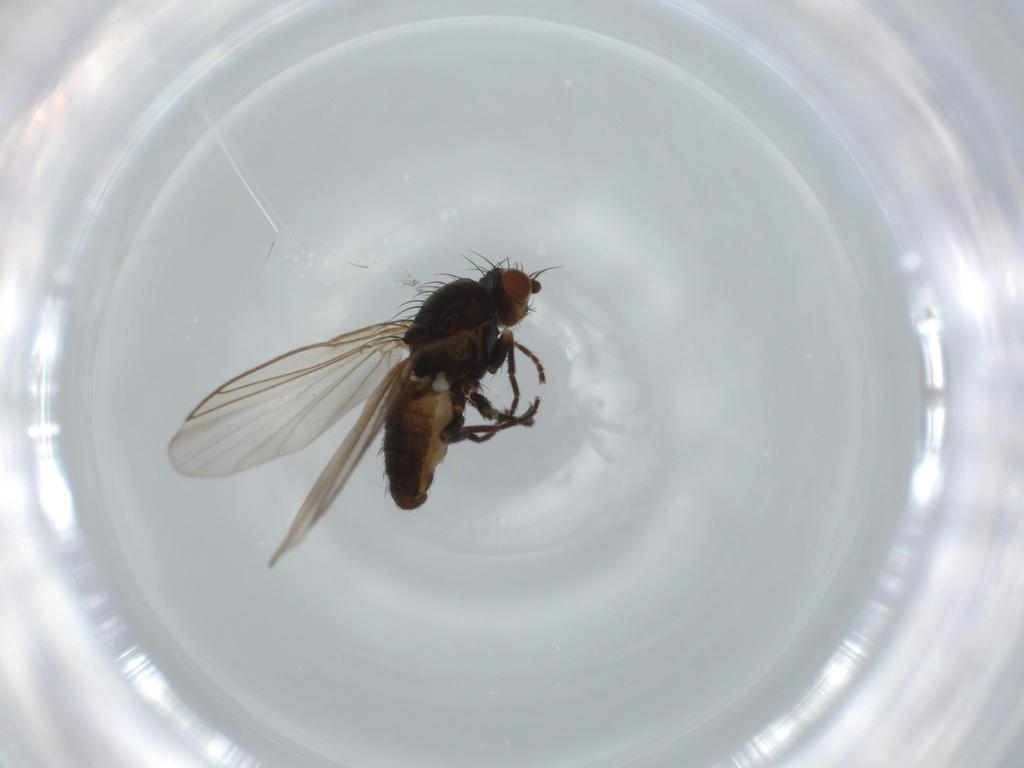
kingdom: Animalia
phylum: Arthropoda
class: Insecta
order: Diptera
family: Agromyzidae
